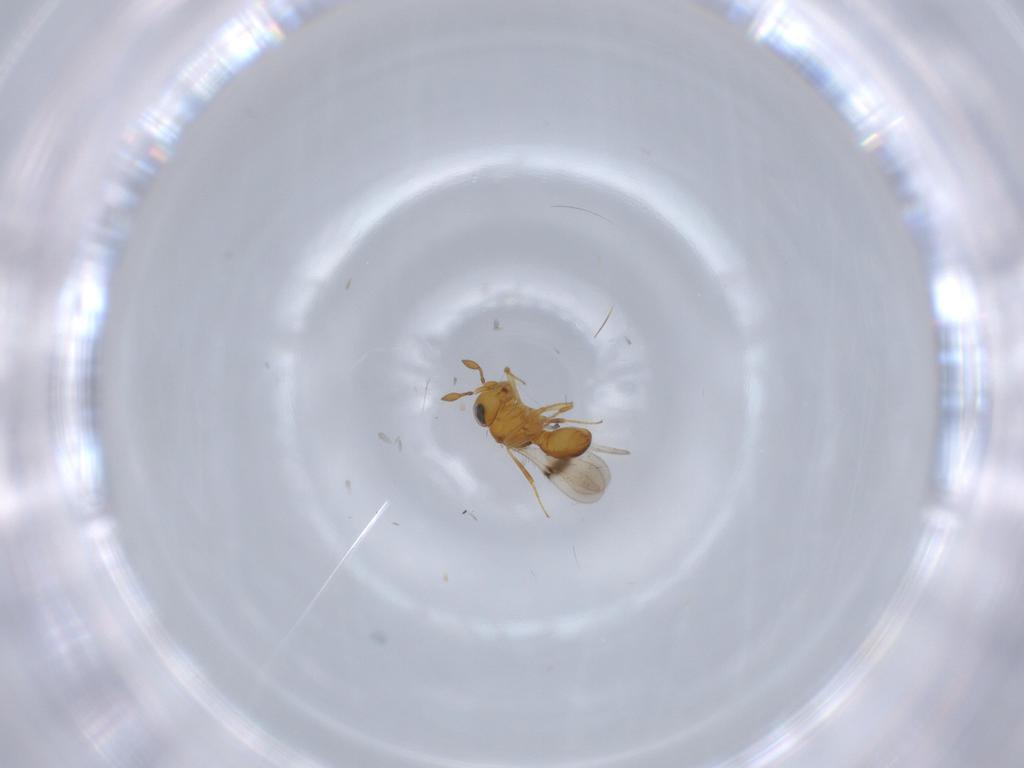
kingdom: Animalia
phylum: Arthropoda
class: Insecta
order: Hymenoptera
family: Scelionidae
